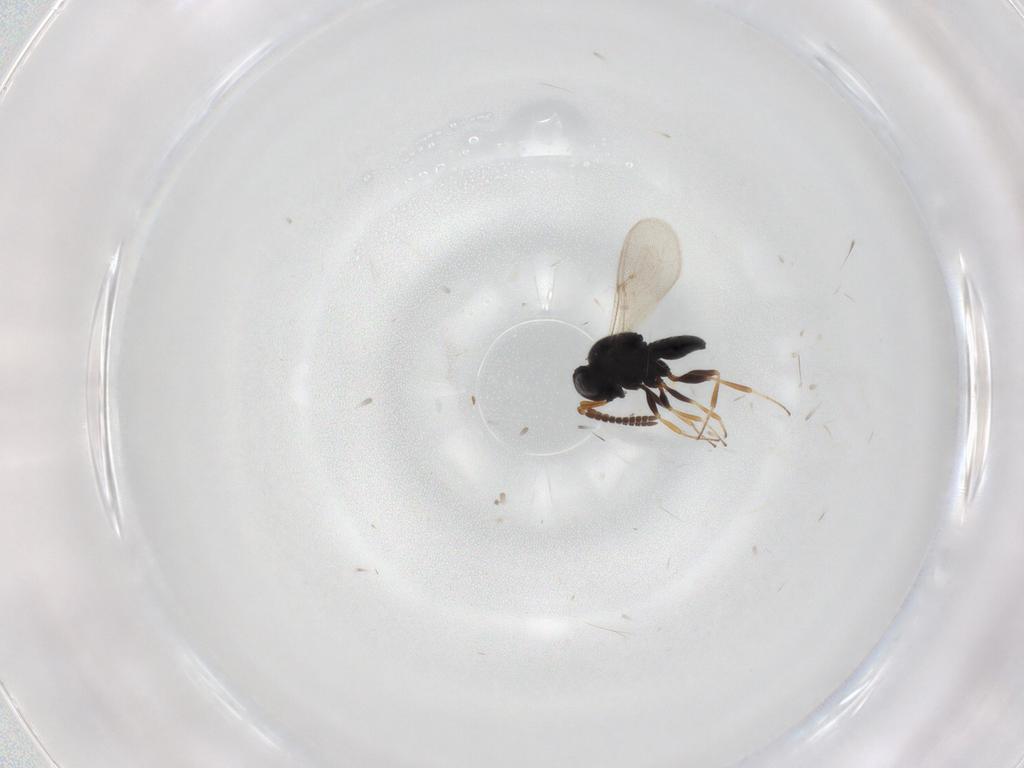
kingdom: Animalia
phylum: Arthropoda
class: Insecta
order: Coleoptera
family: Curculionidae
